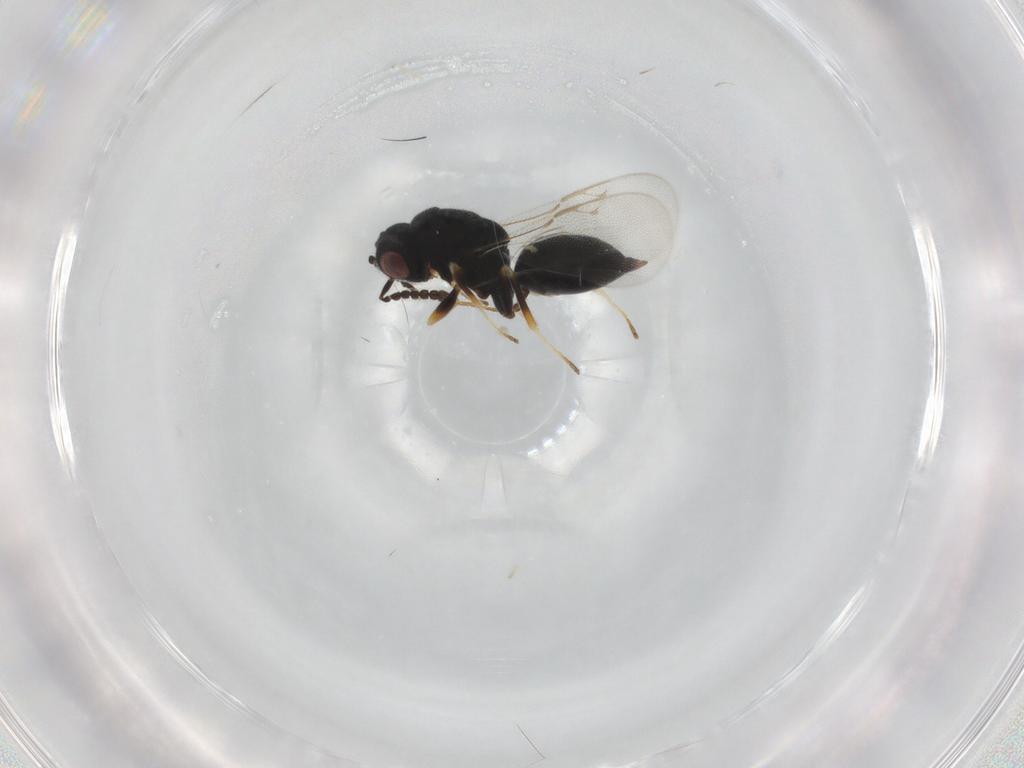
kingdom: Animalia
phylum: Arthropoda
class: Insecta
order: Hymenoptera
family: Eurytomidae
